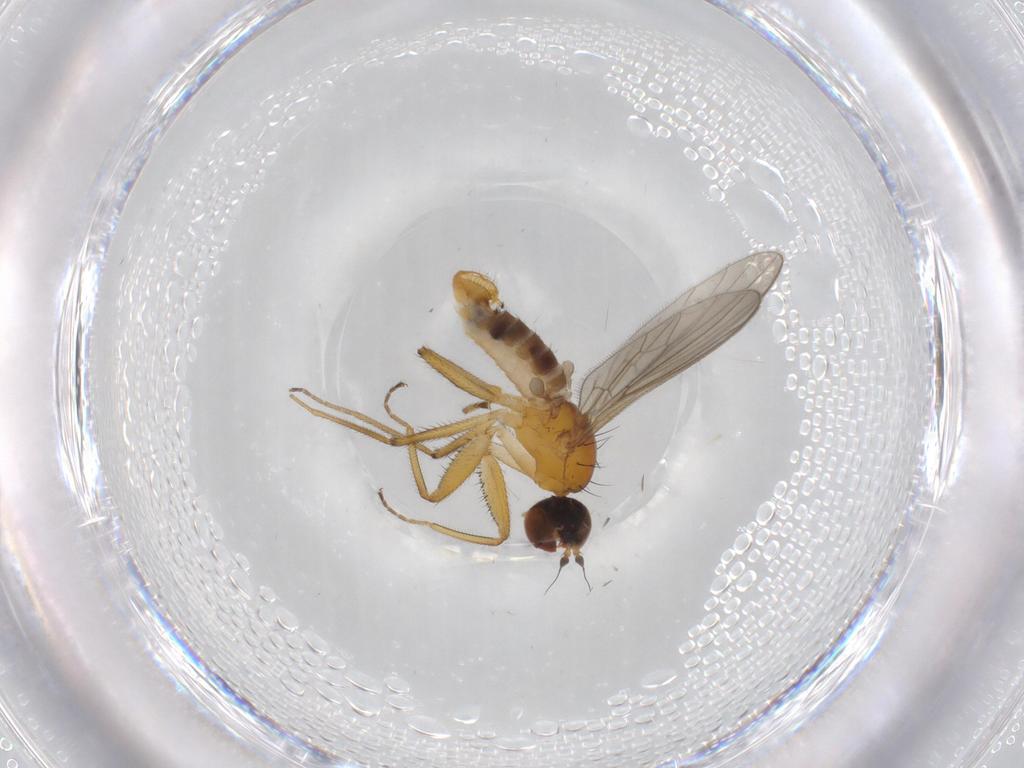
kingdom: Animalia
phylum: Arthropoda
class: Insecta
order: Diptera
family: Empididae
